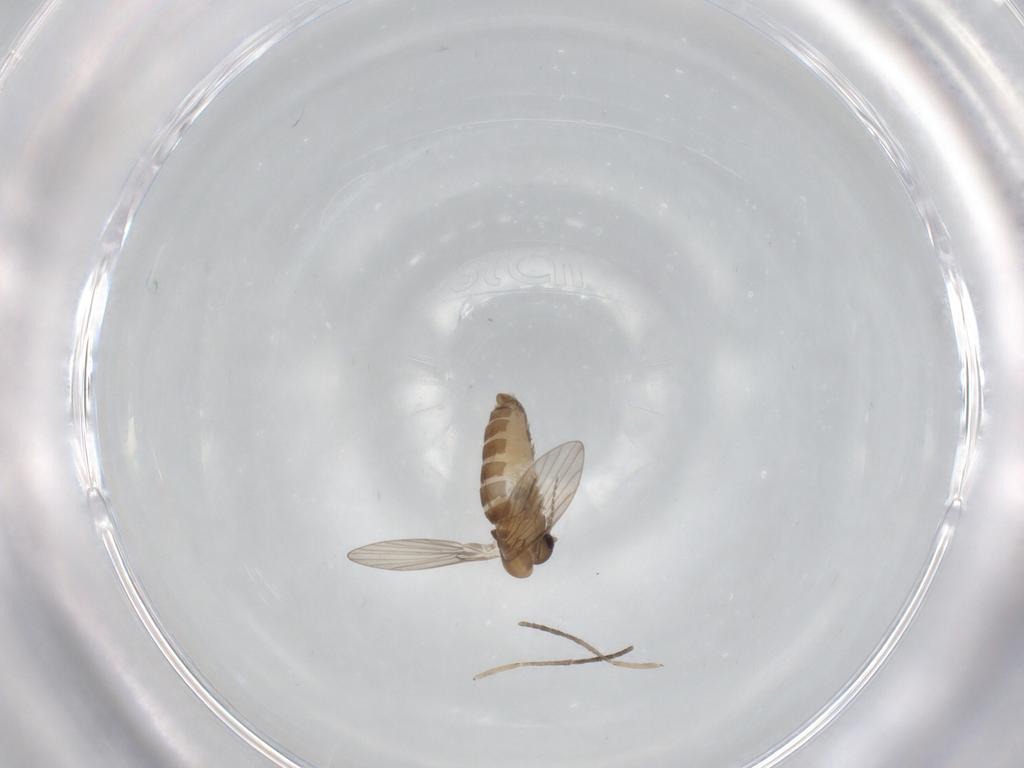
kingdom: Animalia
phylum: Arthropoda
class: Insecta
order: Diptera
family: Psychodidae
